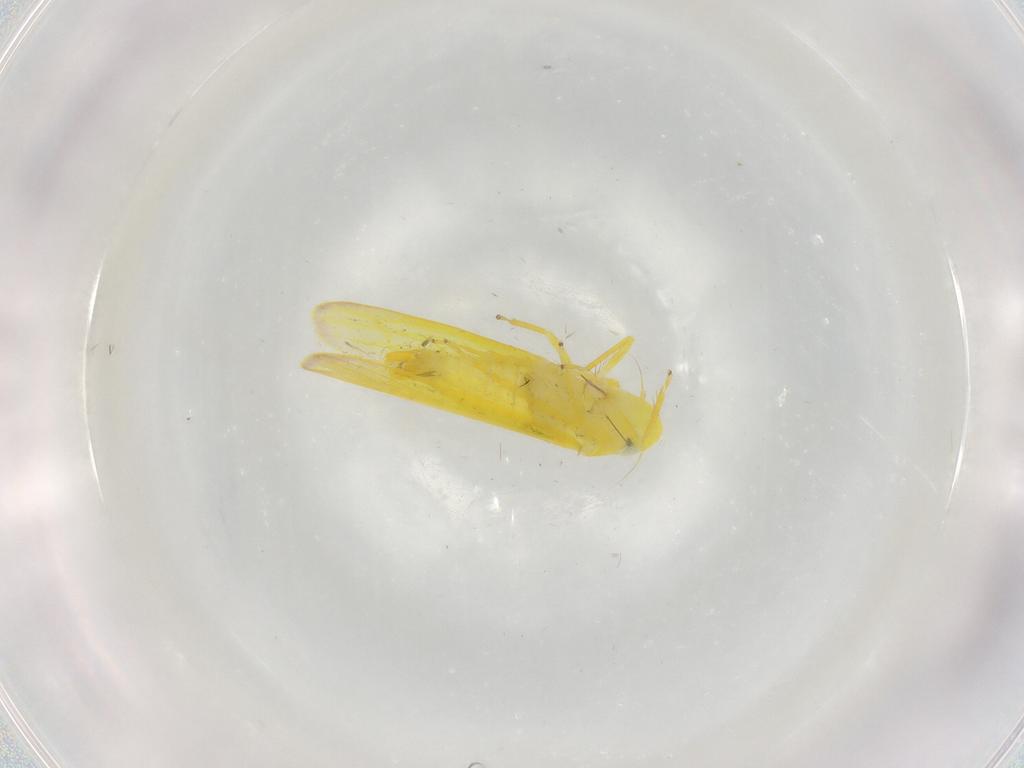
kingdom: Animalia
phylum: Arthropoda
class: Insecta
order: Hemiptera
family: Cicadellidae
